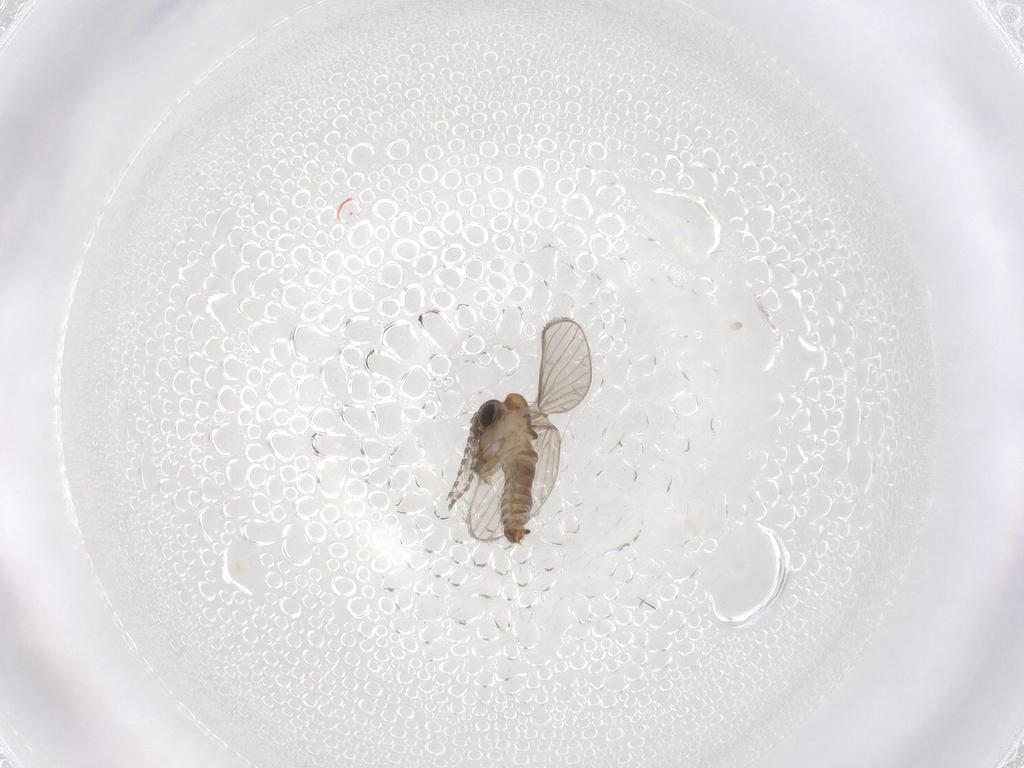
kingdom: Animalia
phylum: Arthropoda
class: Insecta
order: Diptera
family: Psychodidae
